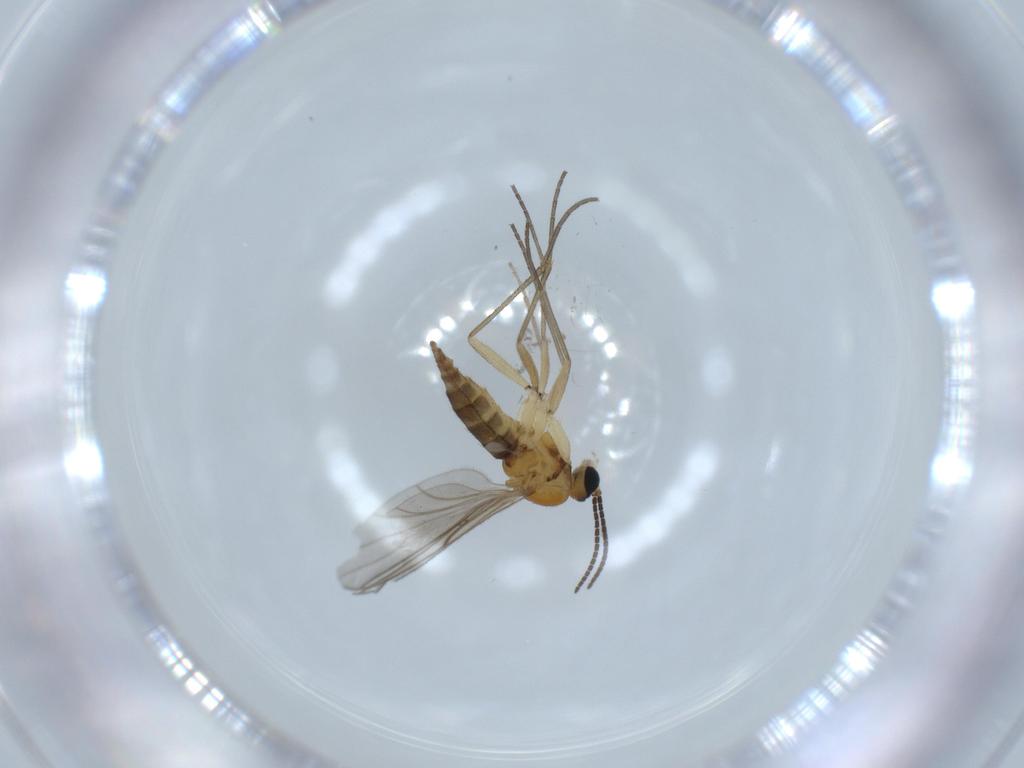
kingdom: Animalia
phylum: Arthropoda
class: Insecta
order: Diptera
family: Chironomidae
